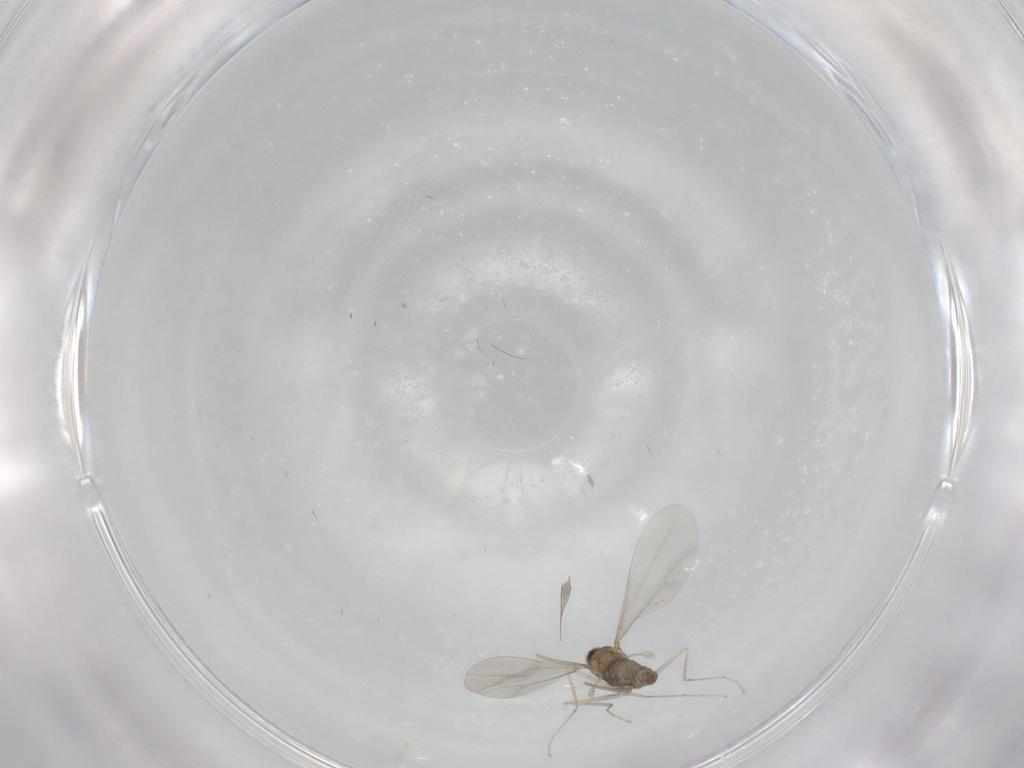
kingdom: Animalia
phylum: Arthropoda
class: Insecta
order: Diptera
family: Cecidomyiidae
